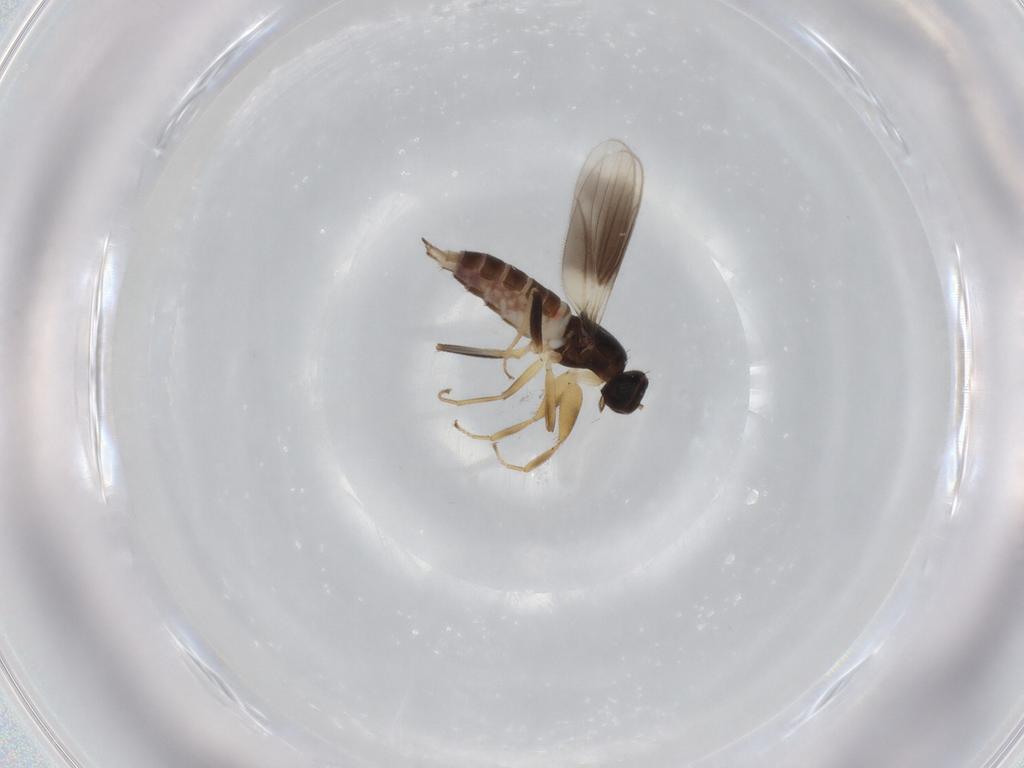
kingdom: Animalia
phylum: Arthropoda
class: Insecta
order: Diptera
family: Hybotidae
